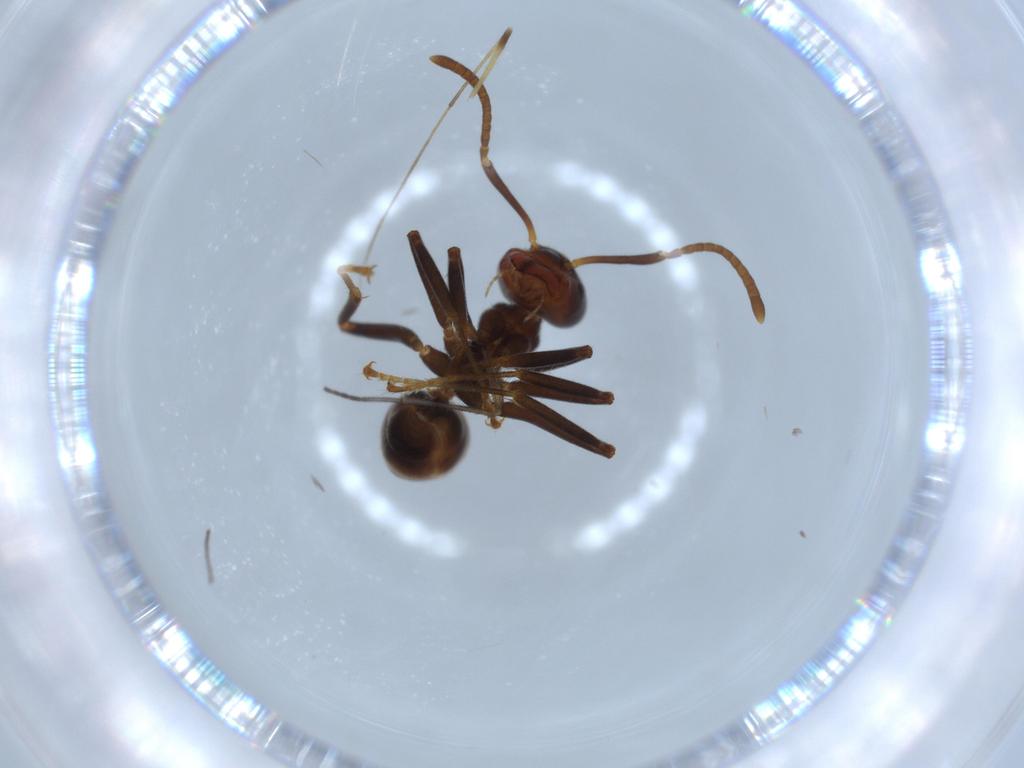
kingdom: Animalia
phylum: Arthropoda
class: Insecta
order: Hymenoptera
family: Formicidae
